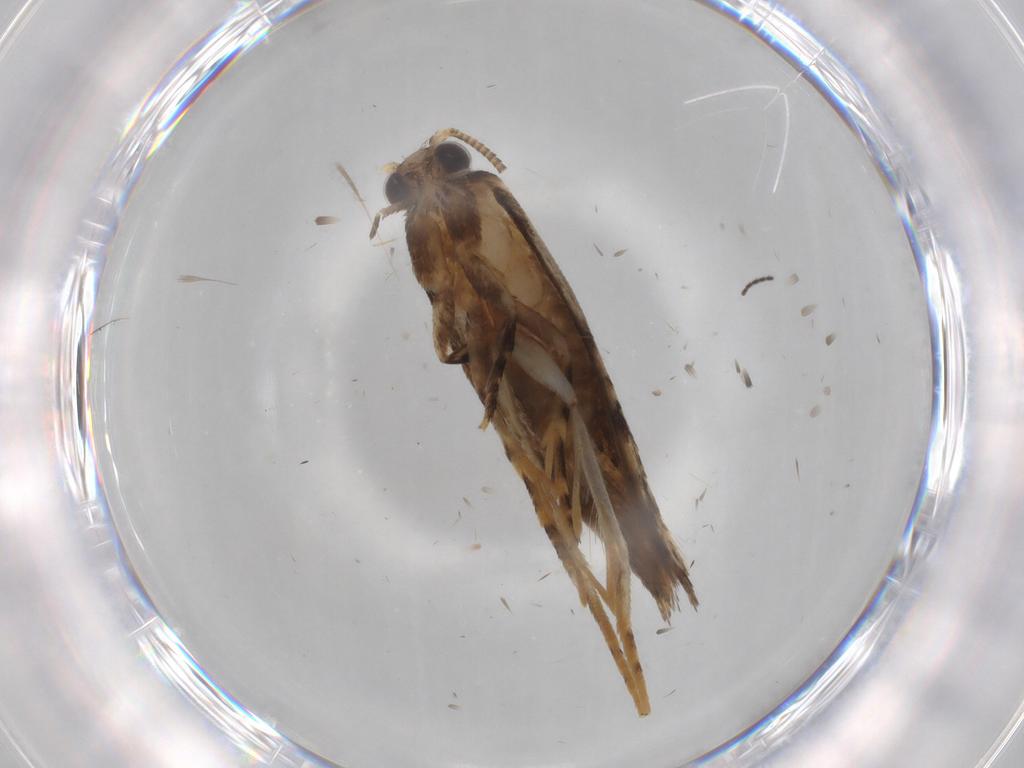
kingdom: Animalia
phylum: Arthropoda
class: Insecta
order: Lepidoptera
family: Tineidae
